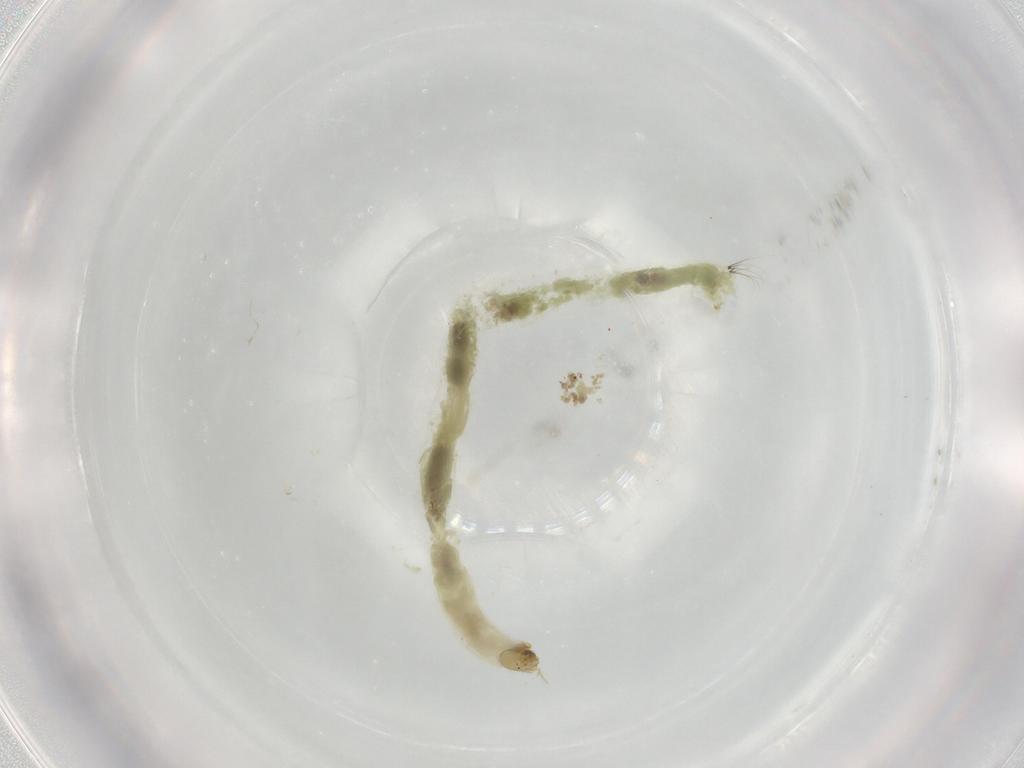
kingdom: Animalia
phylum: Arthropoda
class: Insecta
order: Diptera
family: Chironomidae
